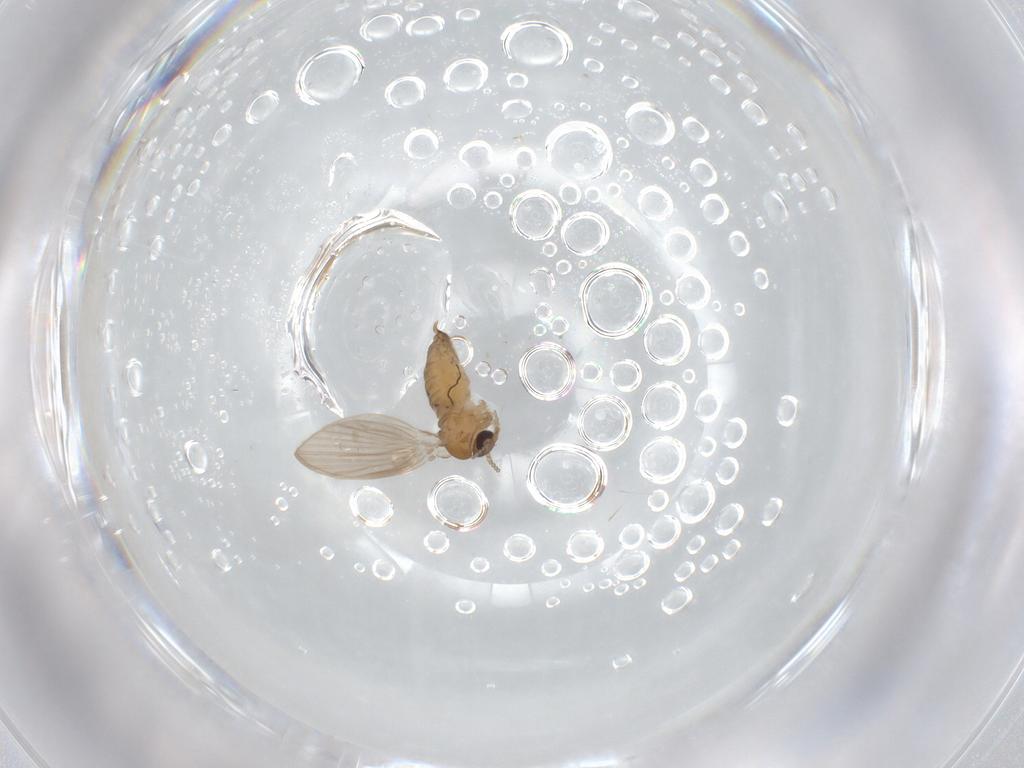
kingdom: Animalia
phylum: Arthropoda
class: Insecta
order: Diptera
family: Psychodidae
